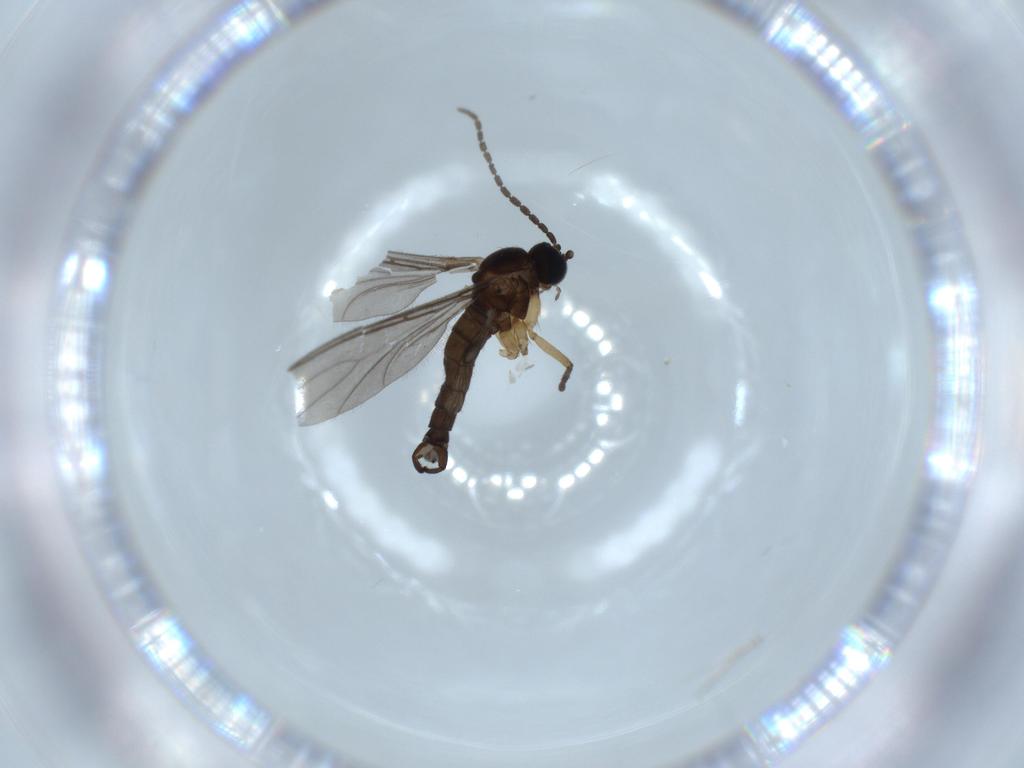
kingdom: Animalia
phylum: Arthropoda
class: Insecta
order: Diptera
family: Sciaridae
